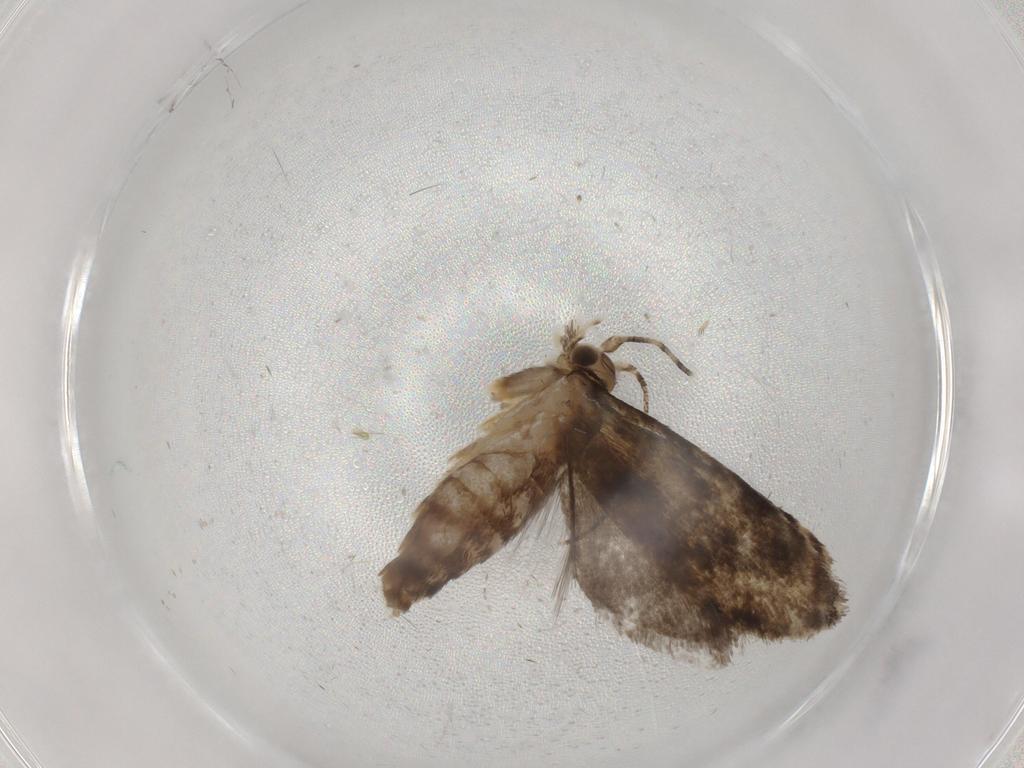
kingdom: Animalia
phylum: Arthropoda
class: Insecta
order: Lepidoptera
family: Tineidae
